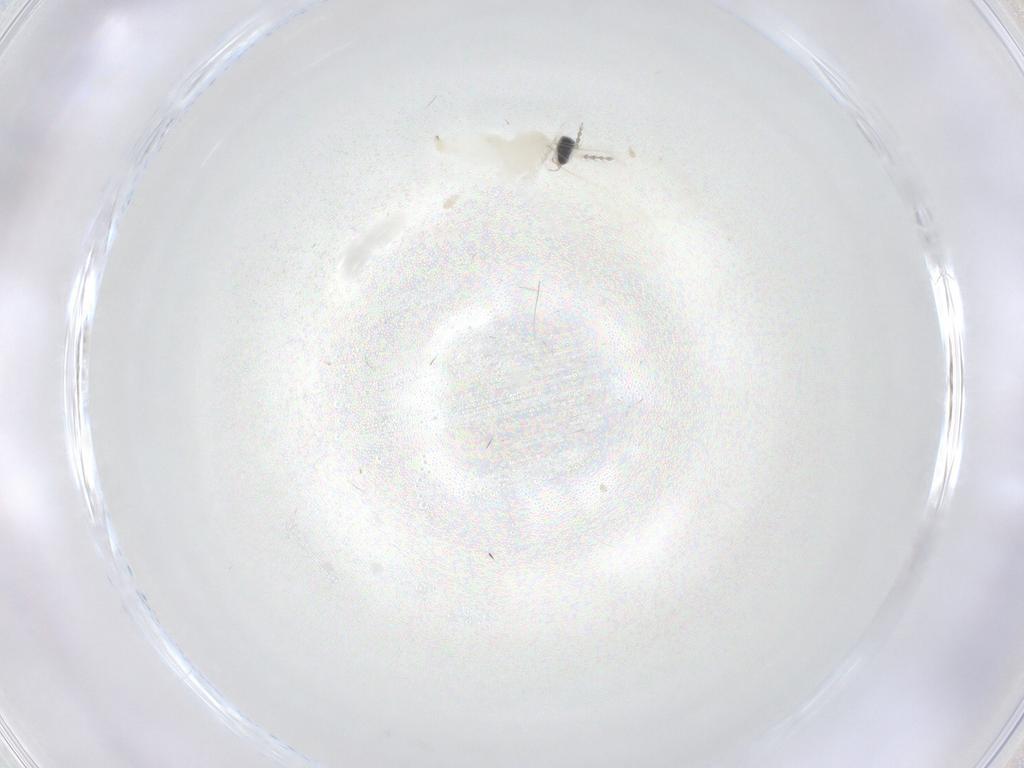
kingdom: Animalia
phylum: Arthropoda
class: Insecta
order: Diptera
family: Cecidomyiidae
